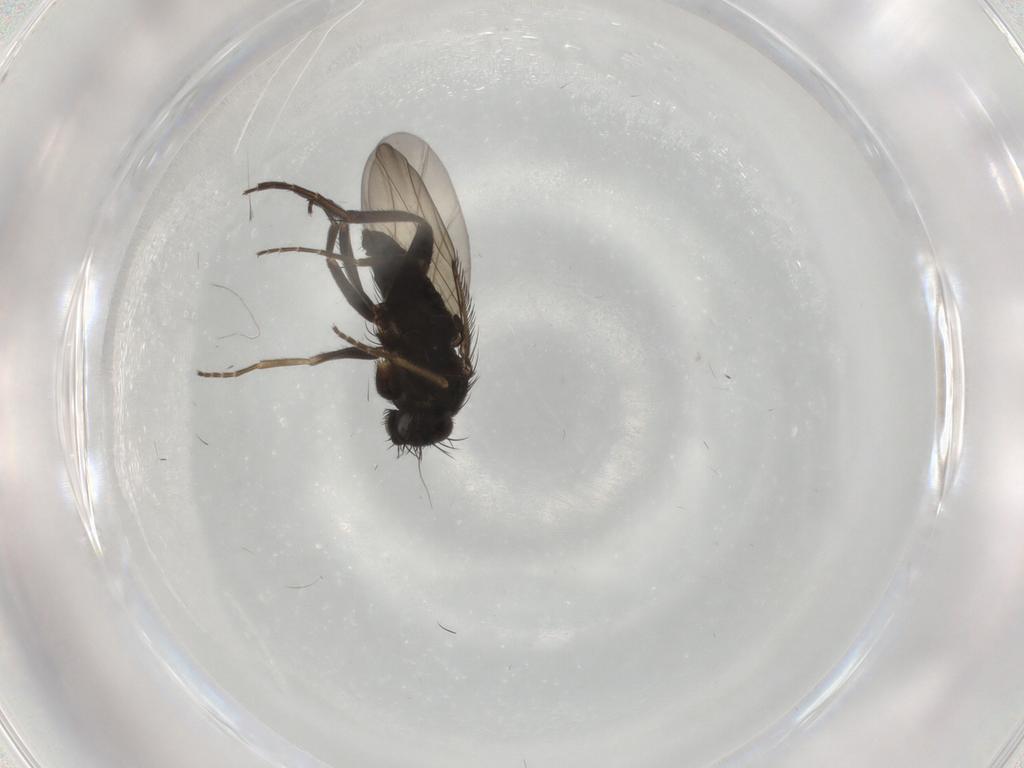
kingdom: Animalia
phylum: Arthropoda
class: Insecta
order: Diptera
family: Phoridae
